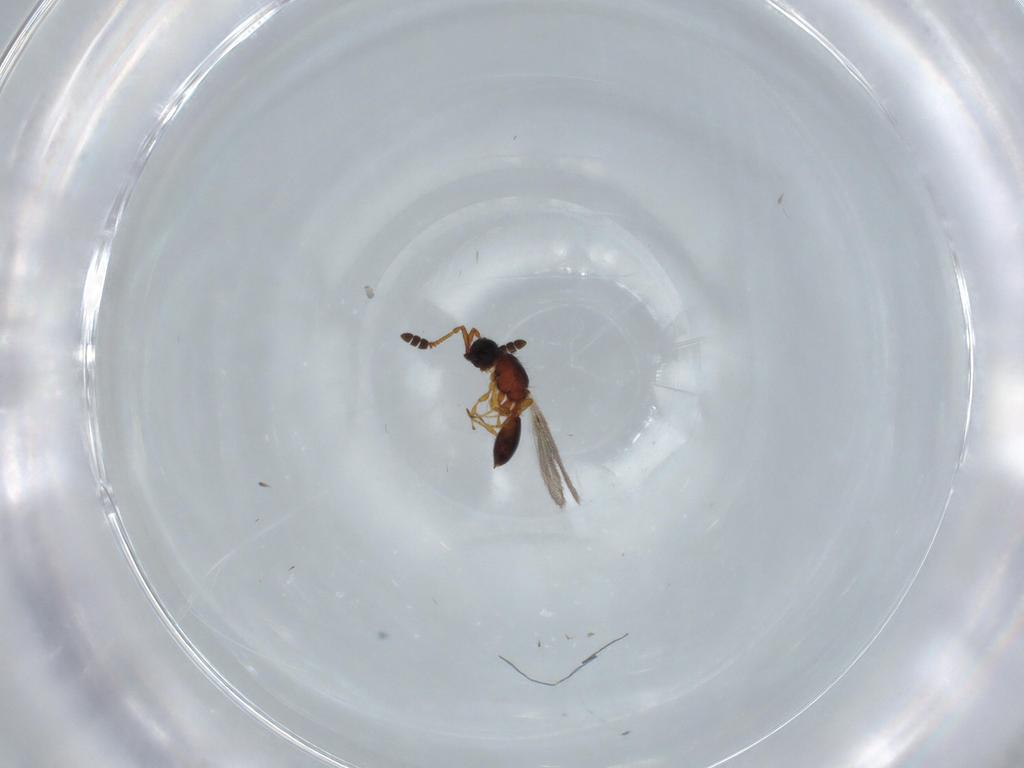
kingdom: Animalia
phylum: Arthropoda
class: Insecta
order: Hymenoptera
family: Diapriidae
